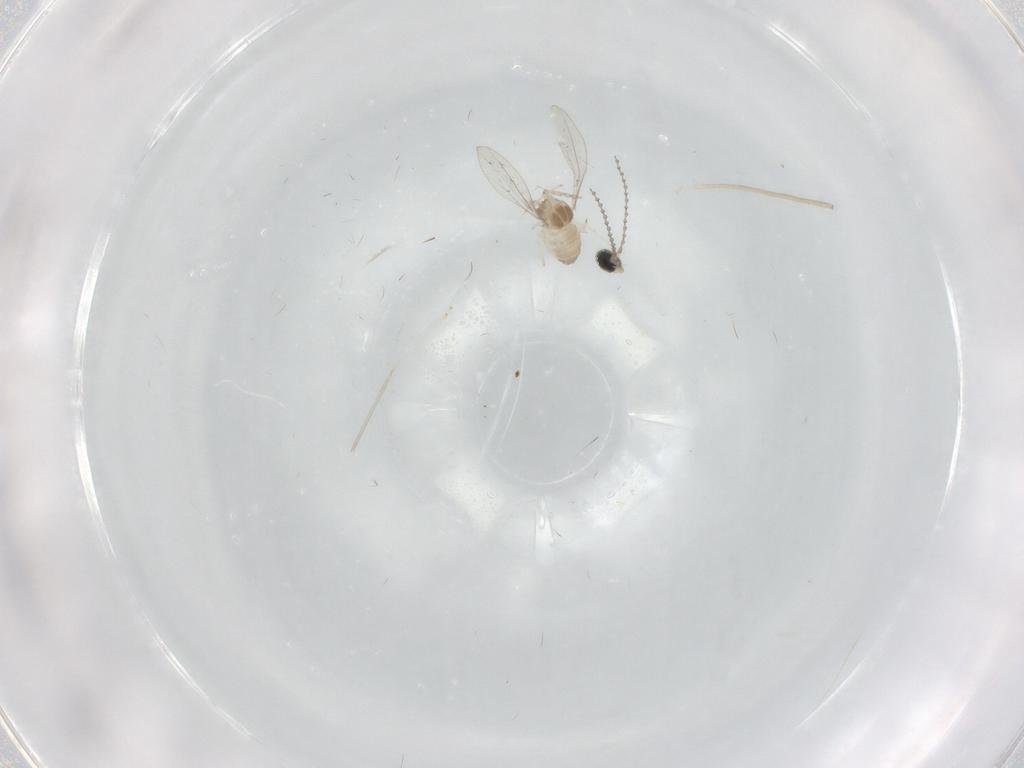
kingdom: Animalia
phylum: Arthropoda
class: Insecta
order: Diptera
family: Cecidomyiidae
